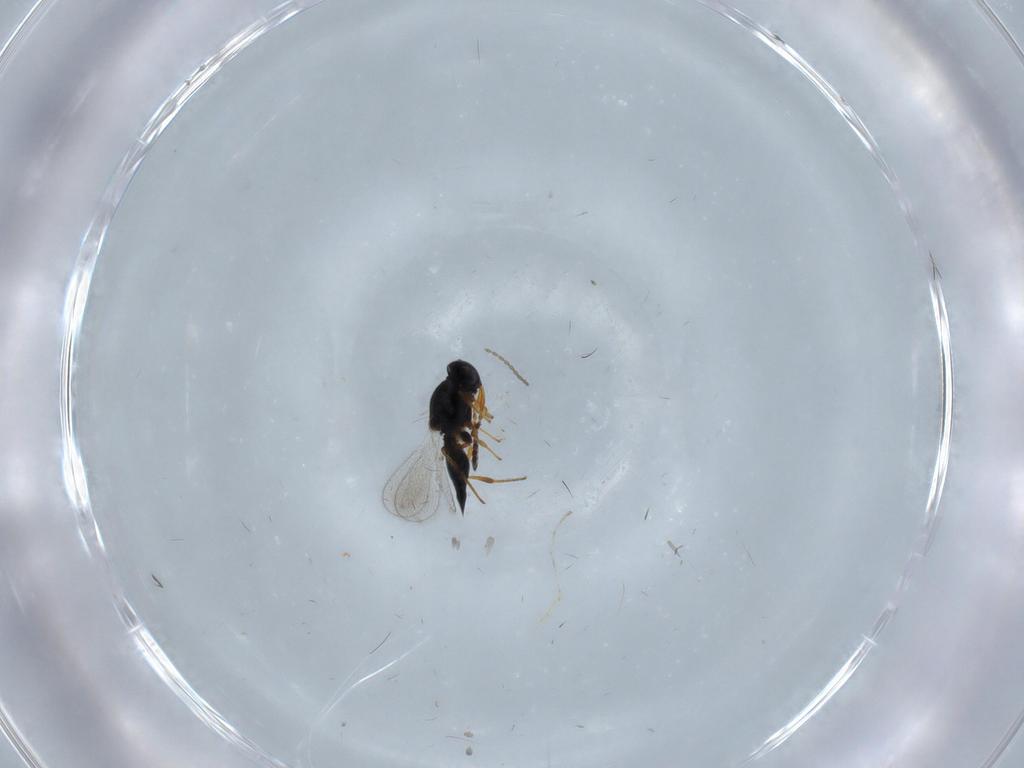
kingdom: Animalia
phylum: Arthropoda
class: Insecta
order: Hymenoptera
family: Platygastridae
